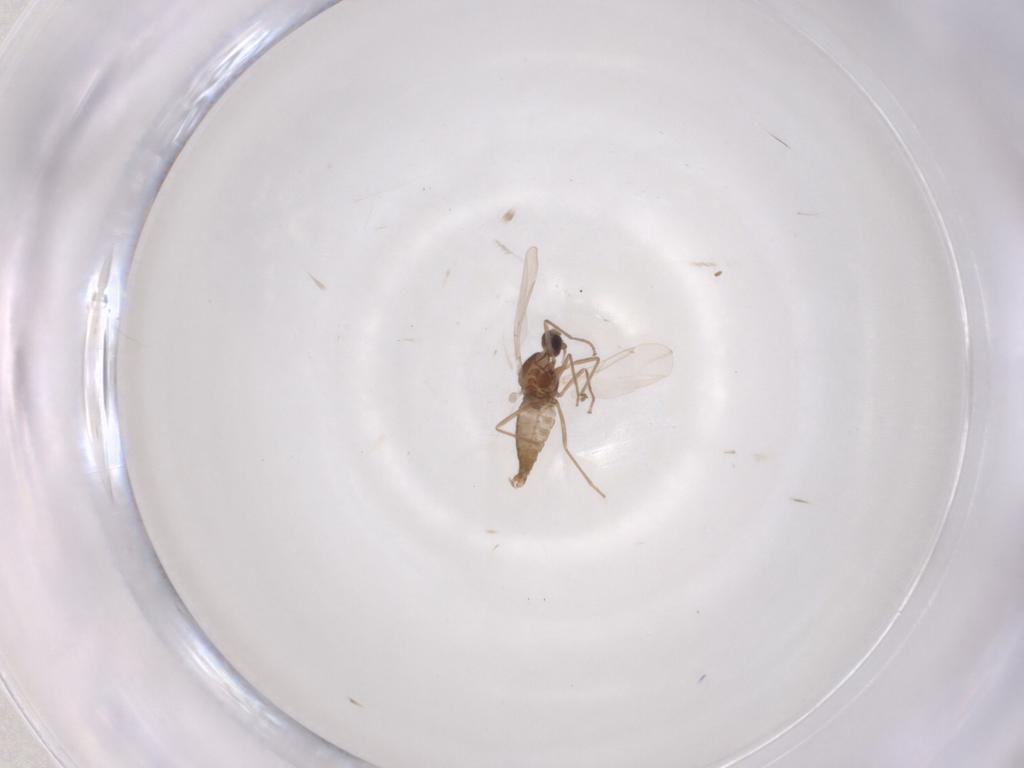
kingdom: Animalia
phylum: Arthropoda
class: Insecta
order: Diptera
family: Cecidomyiidae
